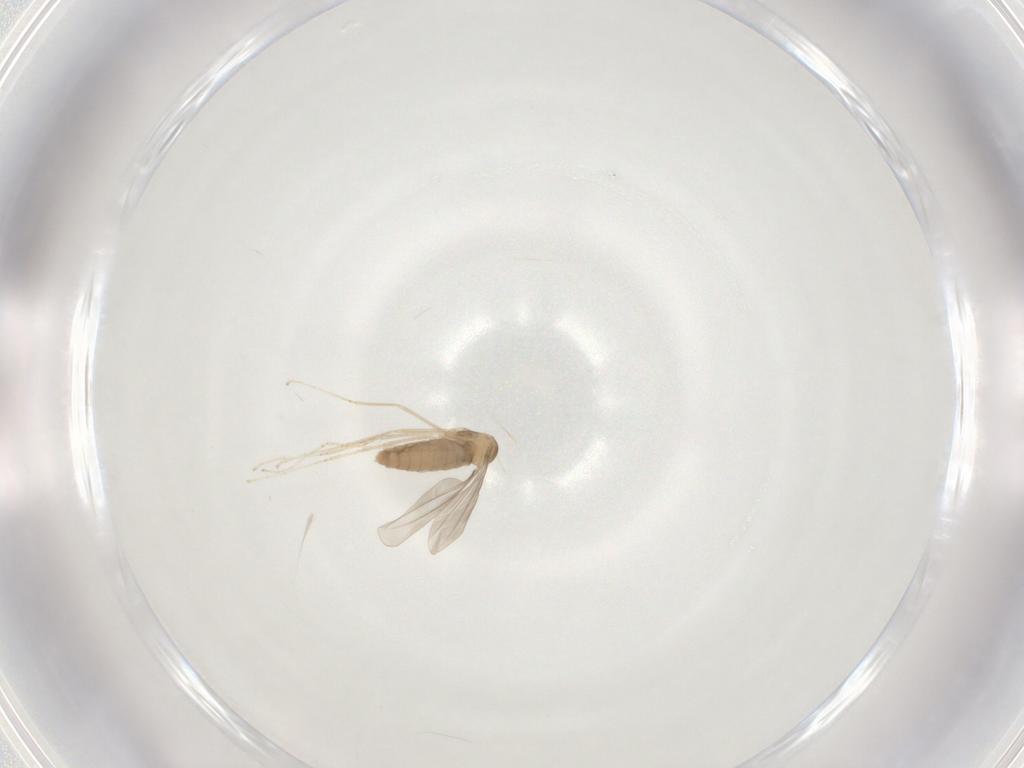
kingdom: Animalia
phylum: Arthropoda
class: Insecta
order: Diptera
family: Cecidomyiidae
